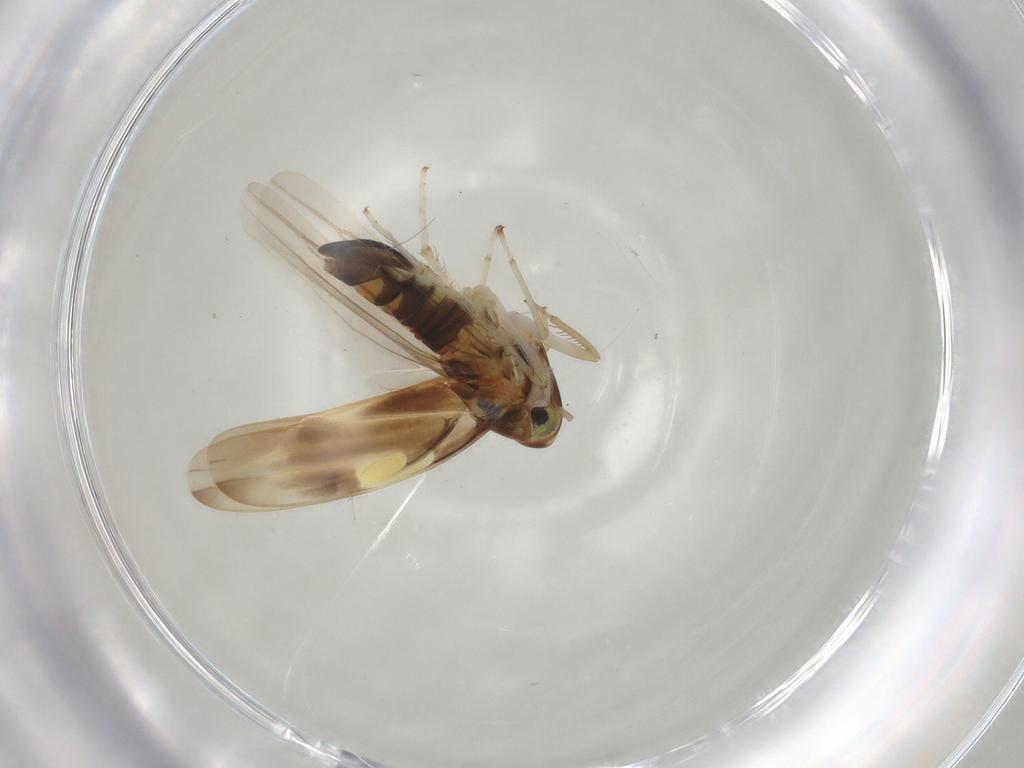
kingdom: Animalia
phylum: Arthropoda
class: Insecta
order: Hemiptera
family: Cicadellidae
